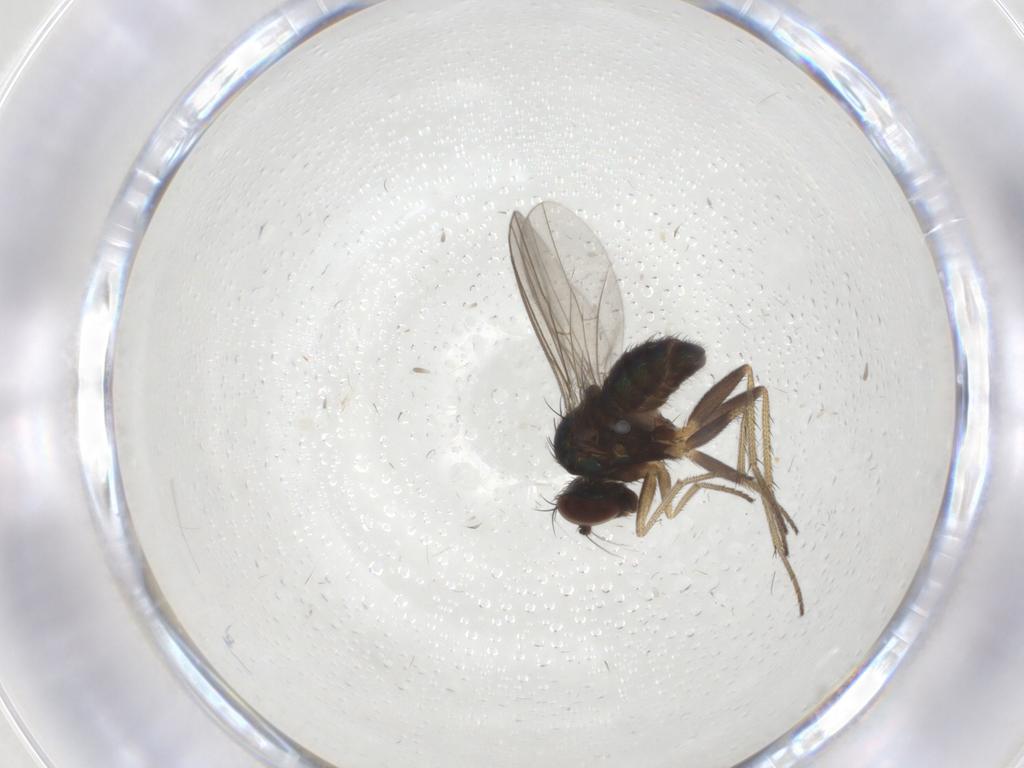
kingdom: Animalia
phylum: Arthropoda
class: Insecta
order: Diptera
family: Dolichopodidae
